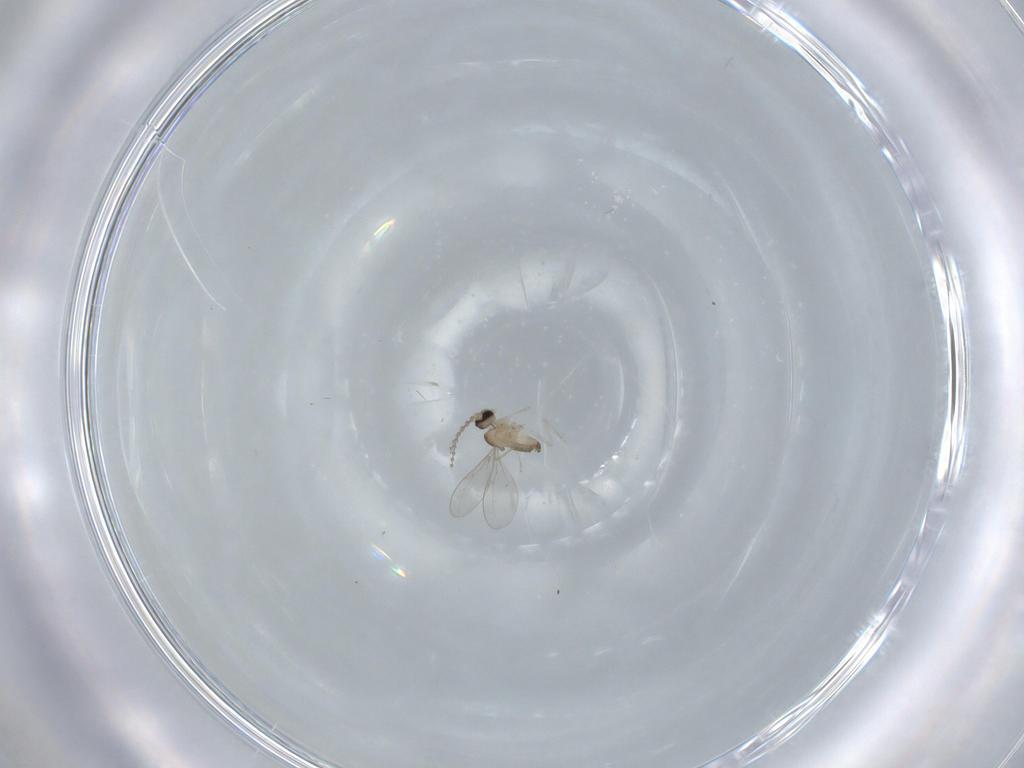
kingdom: Animalia
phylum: Arthropoda
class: Insecta
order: Diptera
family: Cecidomyiidae
